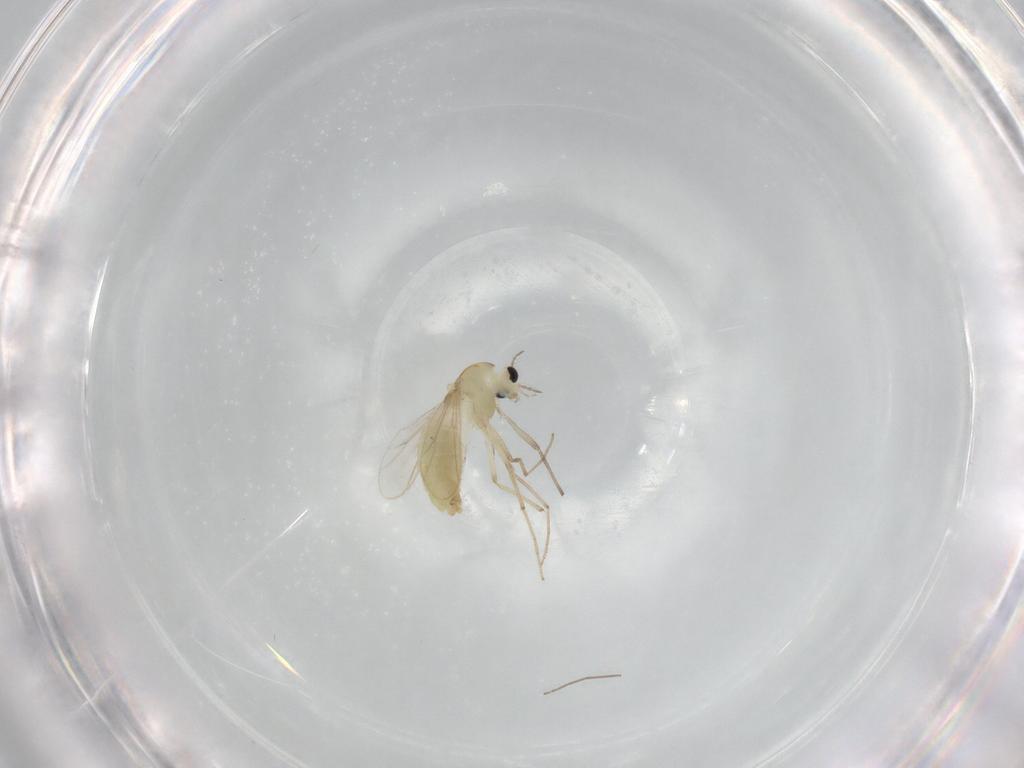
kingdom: Animalia
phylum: Arthropoda
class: Insecta
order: Diptera
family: Chironomidae
